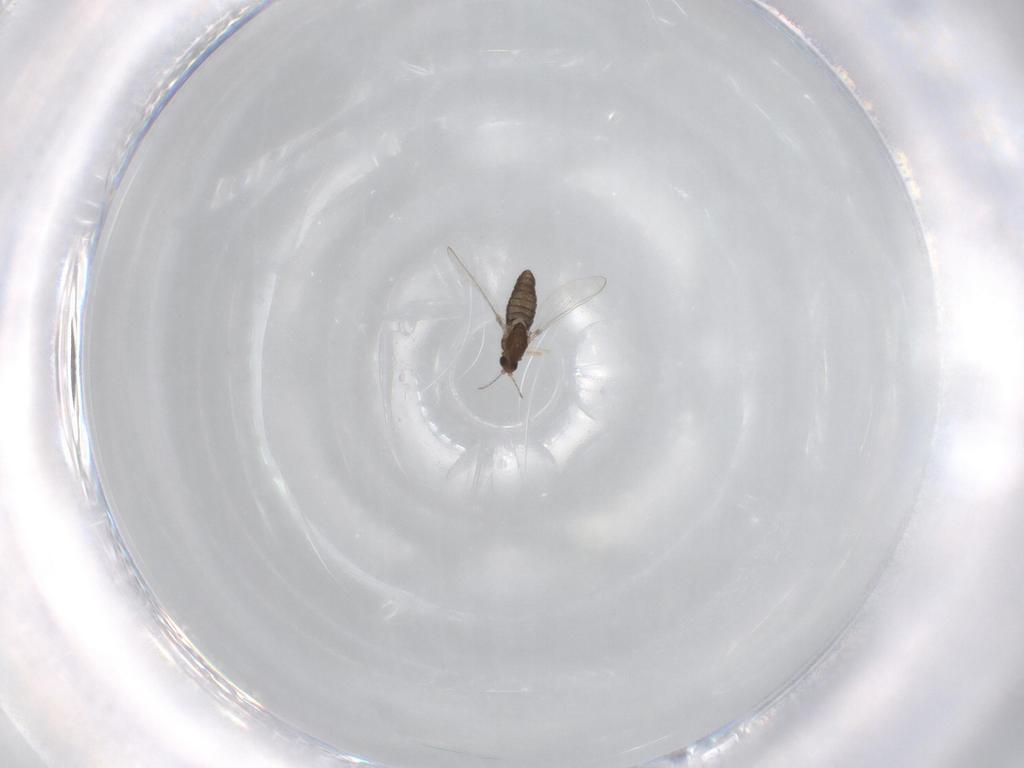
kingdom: Animalia
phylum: Arthropoda
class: Insecta
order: Diptera
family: Chironomidae
